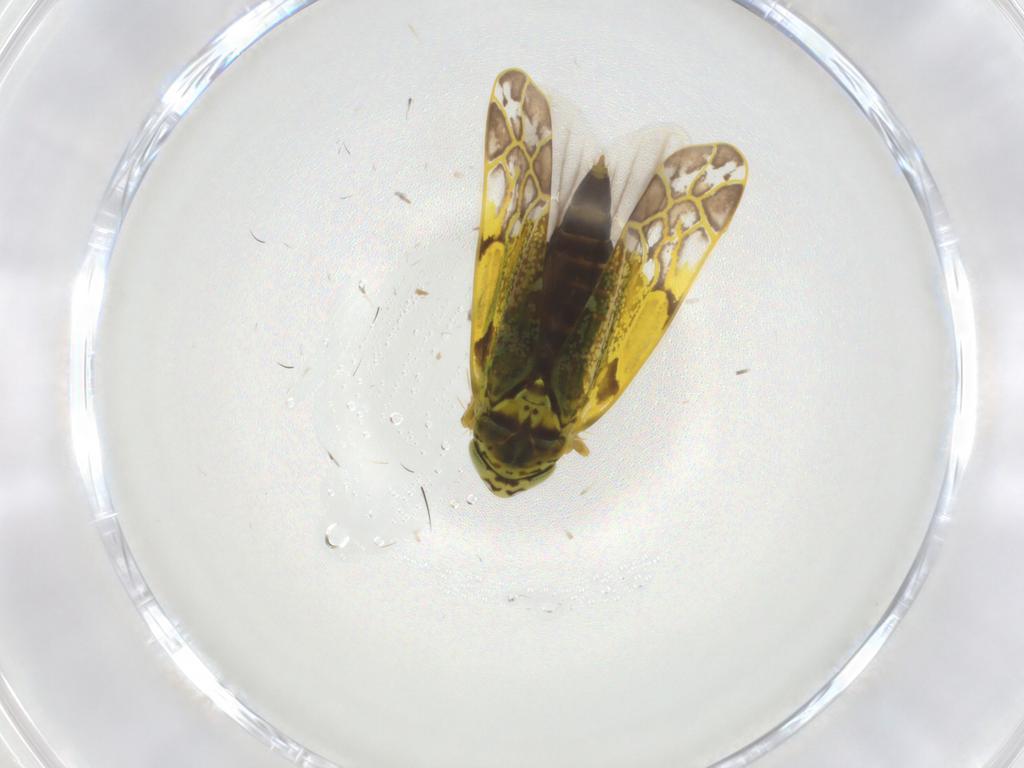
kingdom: Animalia
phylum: Arthropoda
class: Insecta
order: Hemiptera
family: Cicadellidae
